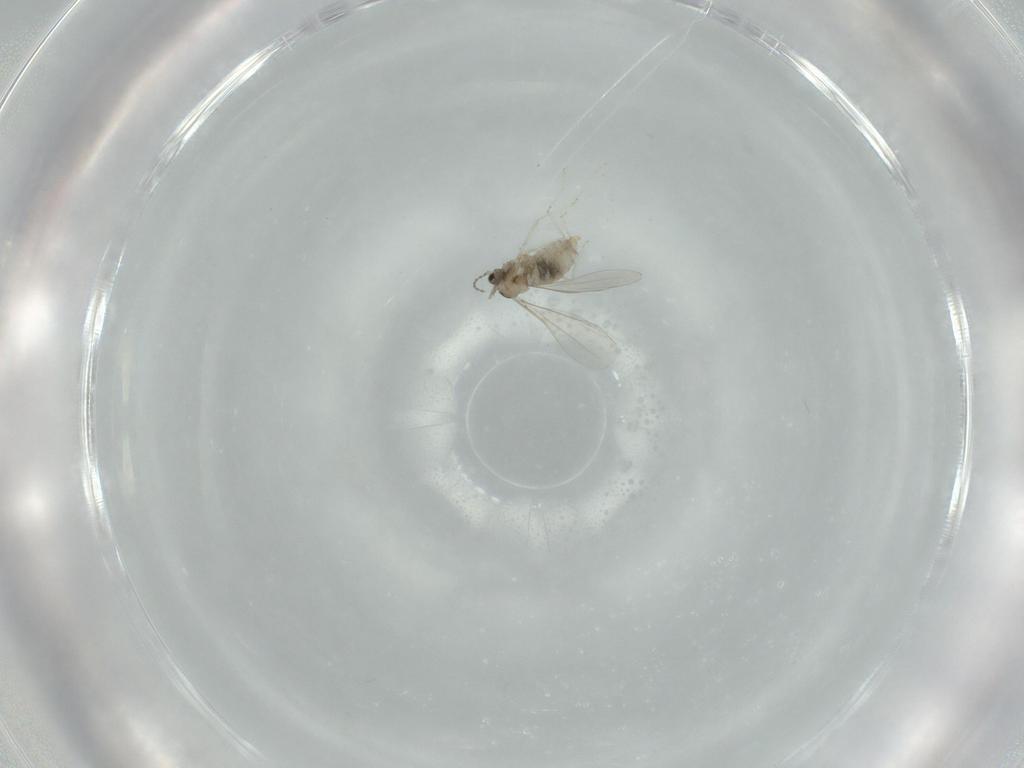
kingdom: Animalia
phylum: Arthropoda
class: Insecta
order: Diptera
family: Cecidomyiidae
